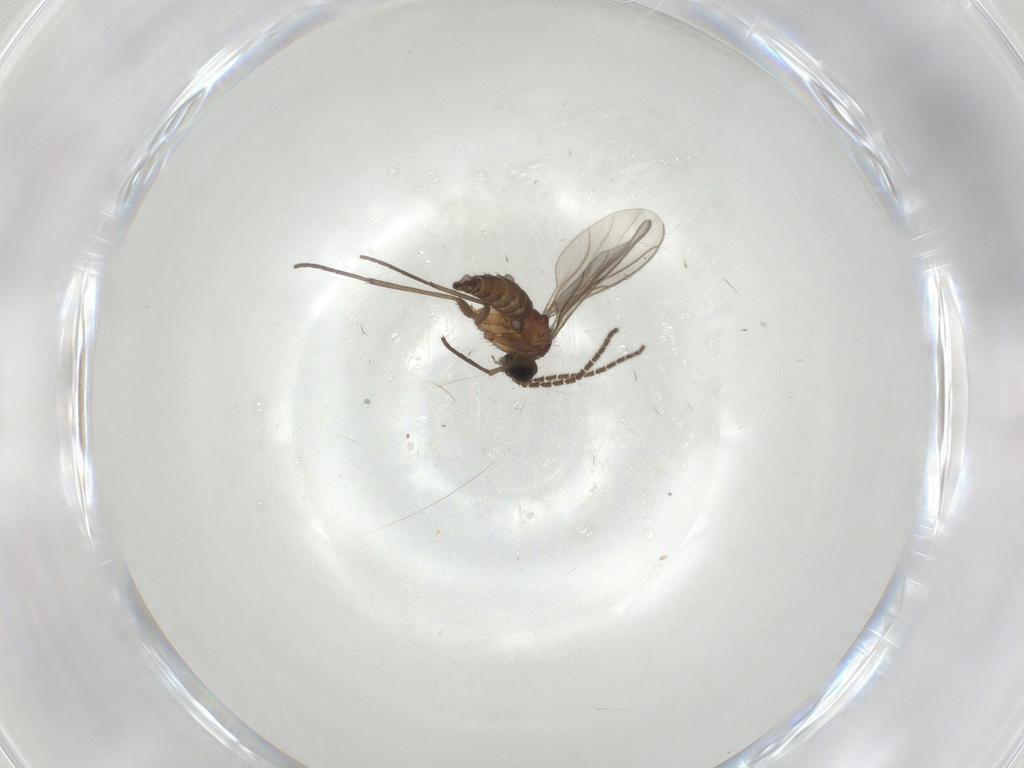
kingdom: Animalia
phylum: Arthropoda
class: Insecta
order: Diptera
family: Sciaridae
